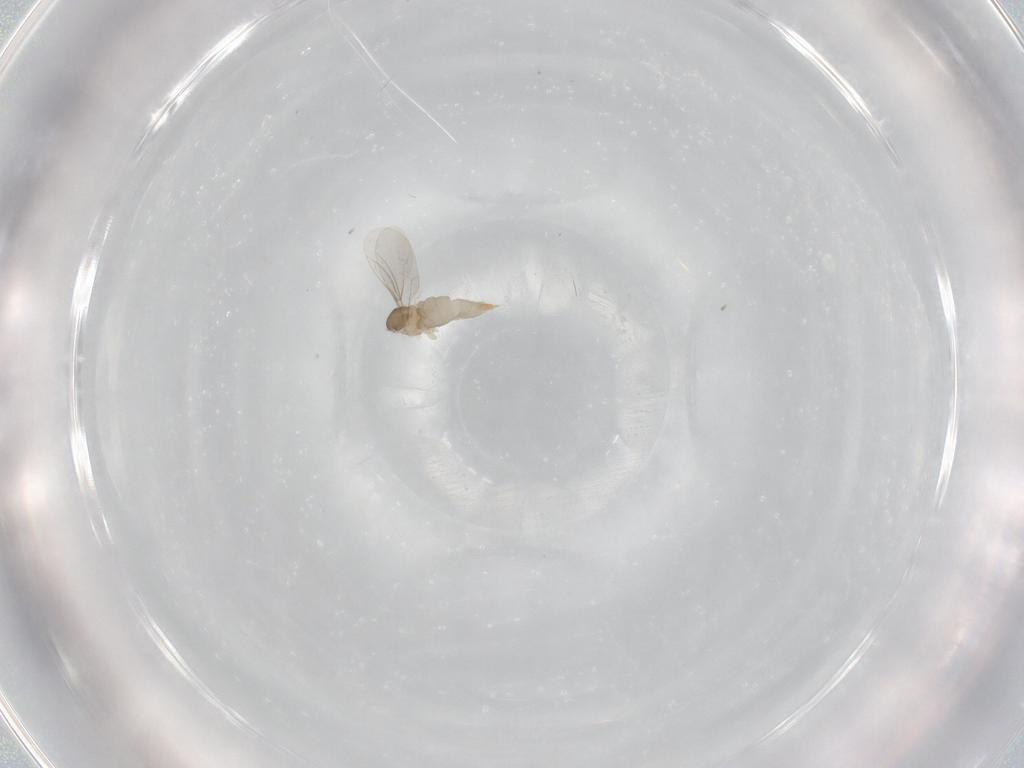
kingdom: Animalia
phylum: Arthropoda
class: Insecta
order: Diptera
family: Cecidomyiidae
